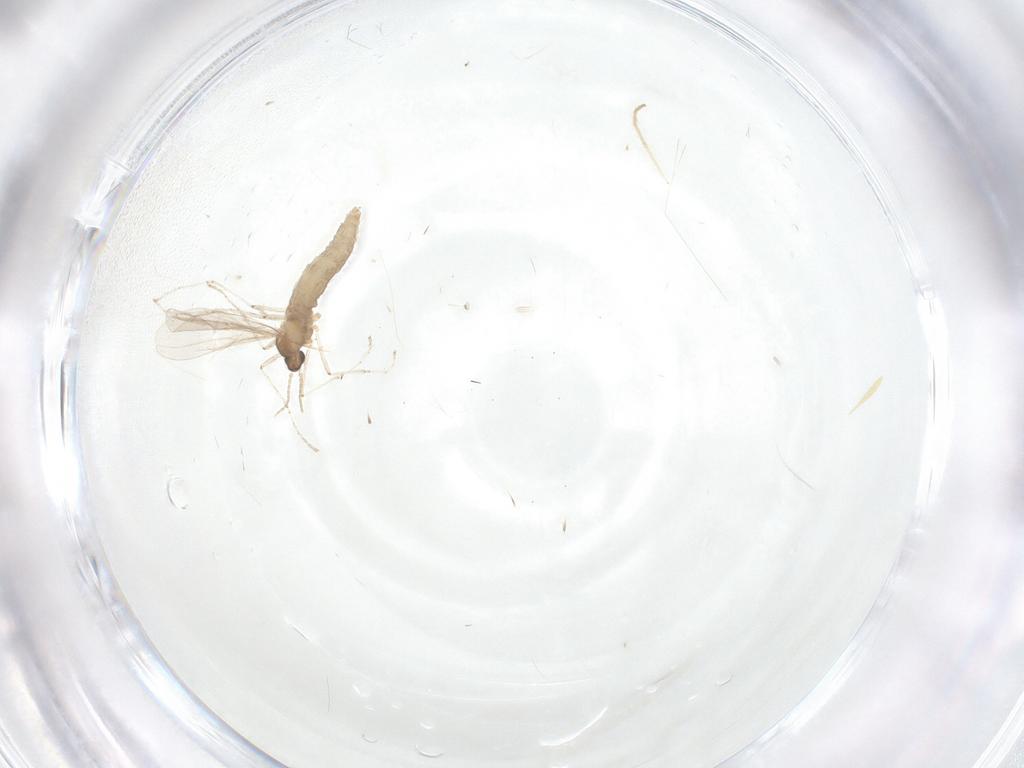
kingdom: Animalia
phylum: Arthropoda
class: Insecta
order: Diptera
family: Cecidomyiidae
